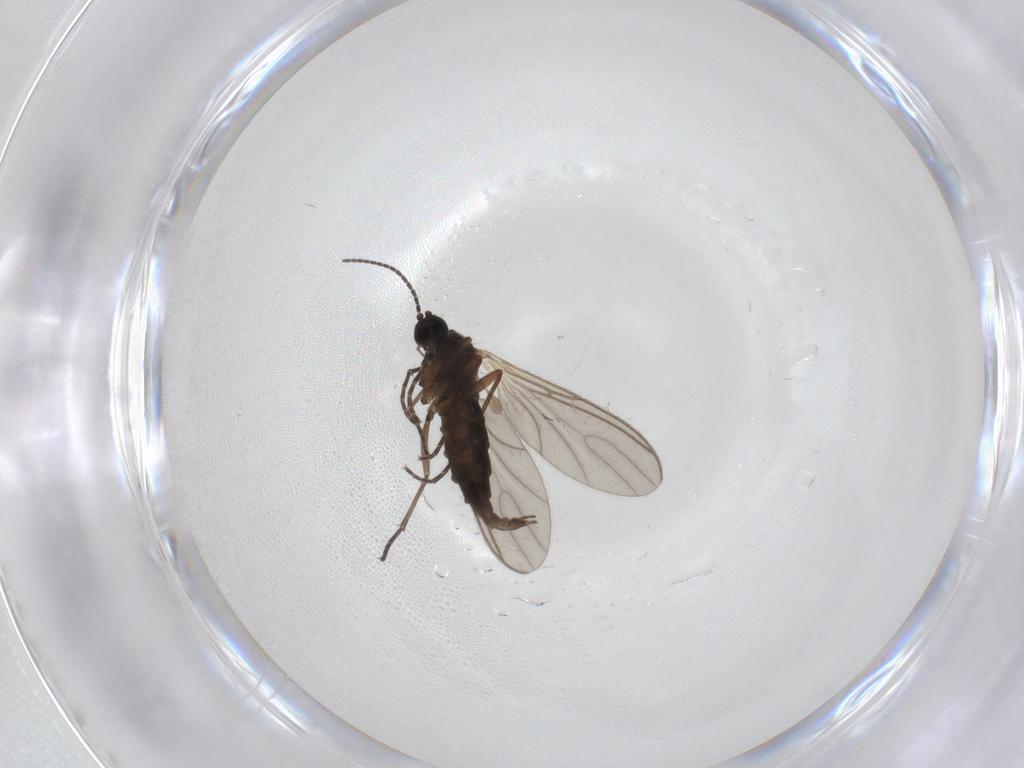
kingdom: Animalia
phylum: Arthropoda
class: Insecta
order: Diptera
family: Sciaridae
